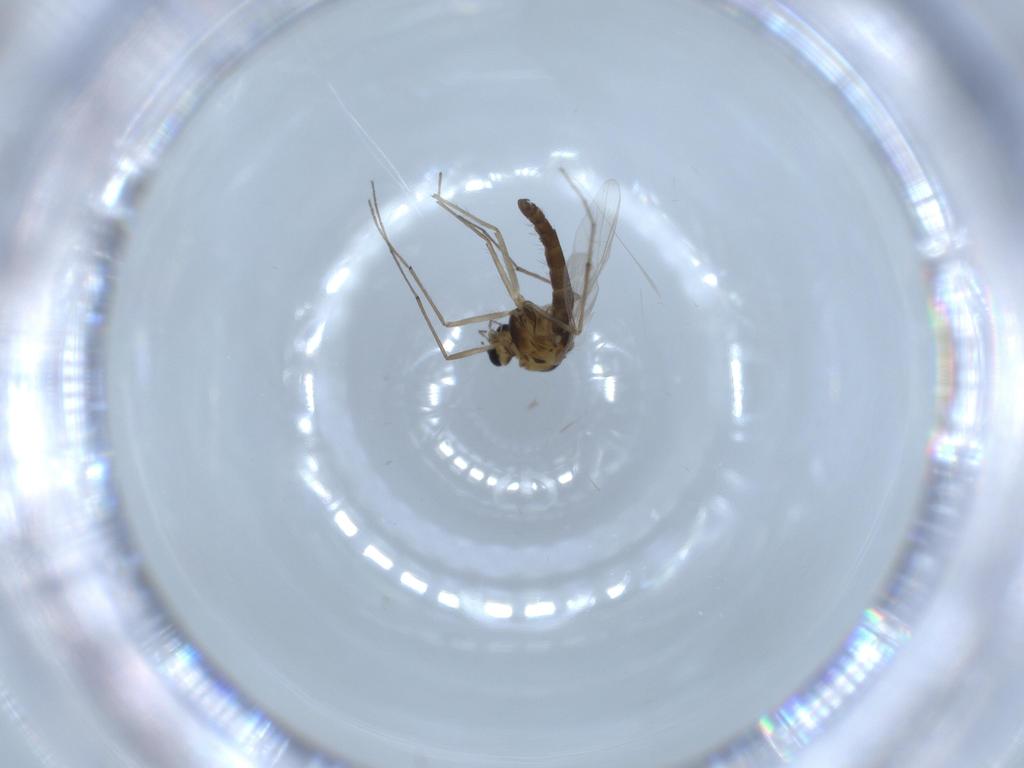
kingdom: Animalia
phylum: Arthropoda
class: Insecta
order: Diptera
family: Chironomidae
